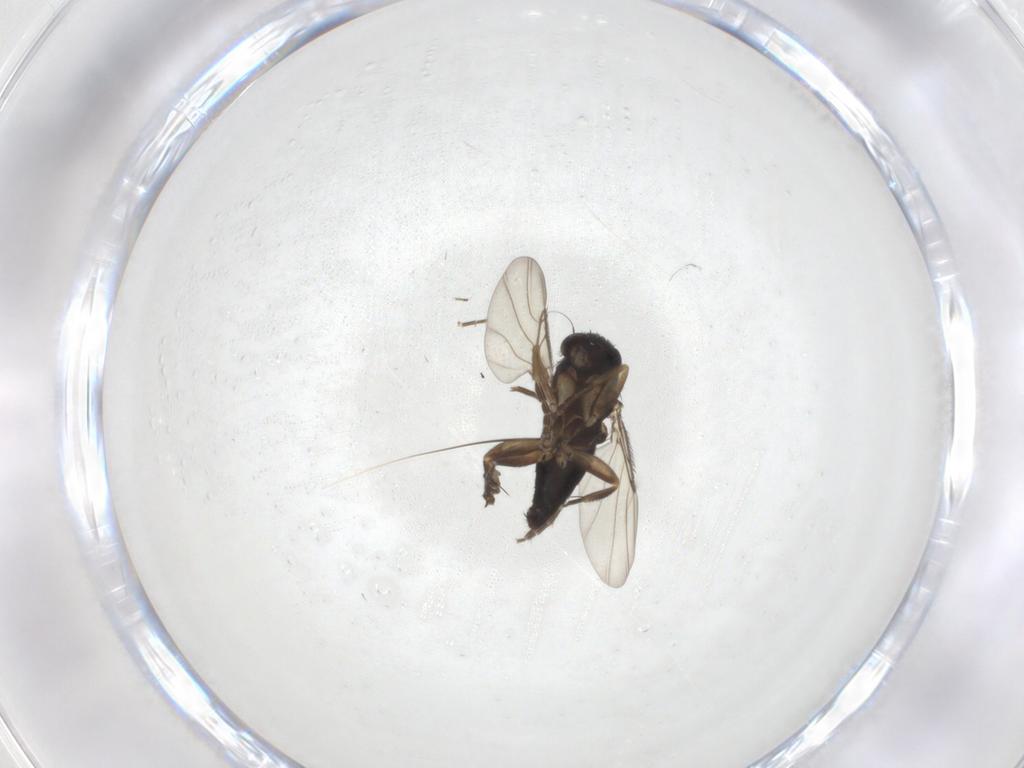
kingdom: Animalia
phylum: Arthropoda
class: Insecta
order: Diptera
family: Phoridae
